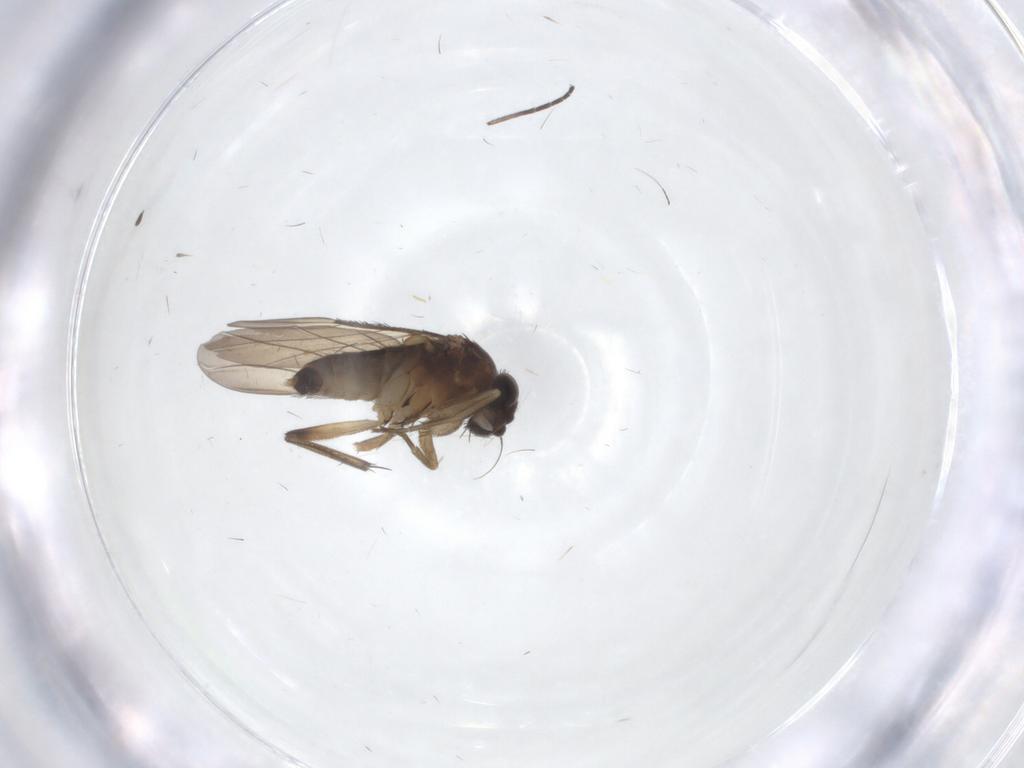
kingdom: Animalia
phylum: Arthropoda
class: Insecta
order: Diptera
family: Phoridae
